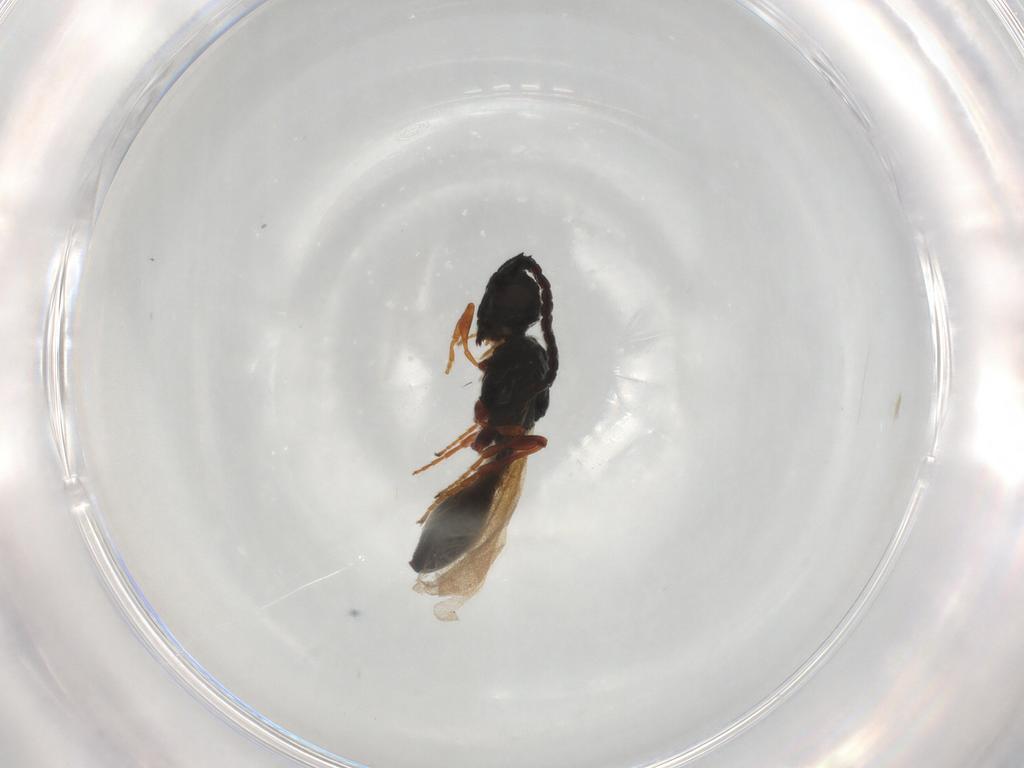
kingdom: Animalia
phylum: Arthropoda
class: Insecta
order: Hymenoptera
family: Diapriidae
